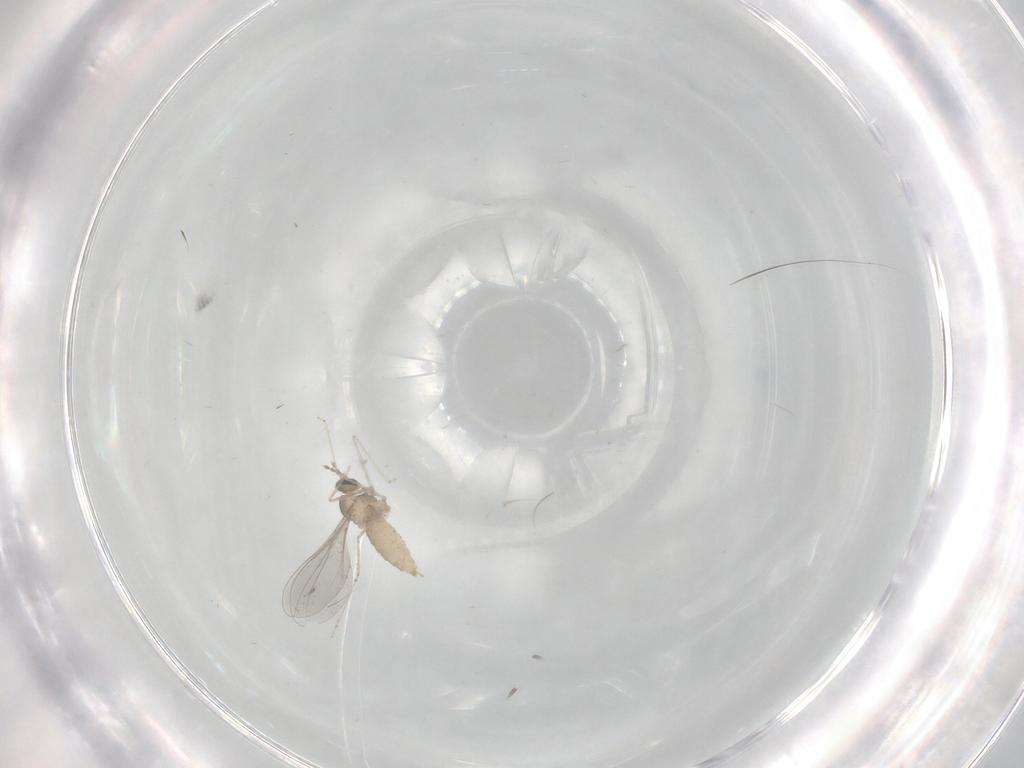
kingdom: Animalia
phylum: Arthropoda
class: Insecta
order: Diptera
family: Cecidomyiidae
